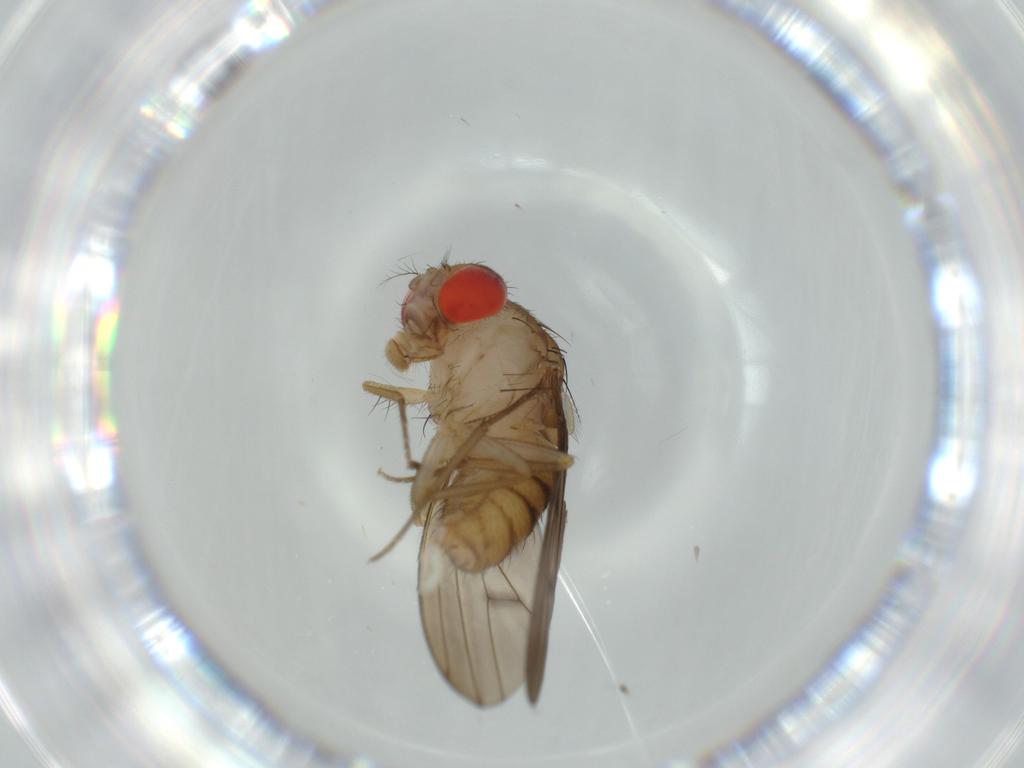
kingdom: Animalia
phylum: Arthropoda
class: Insecta
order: Diptera
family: Drosophilidae
